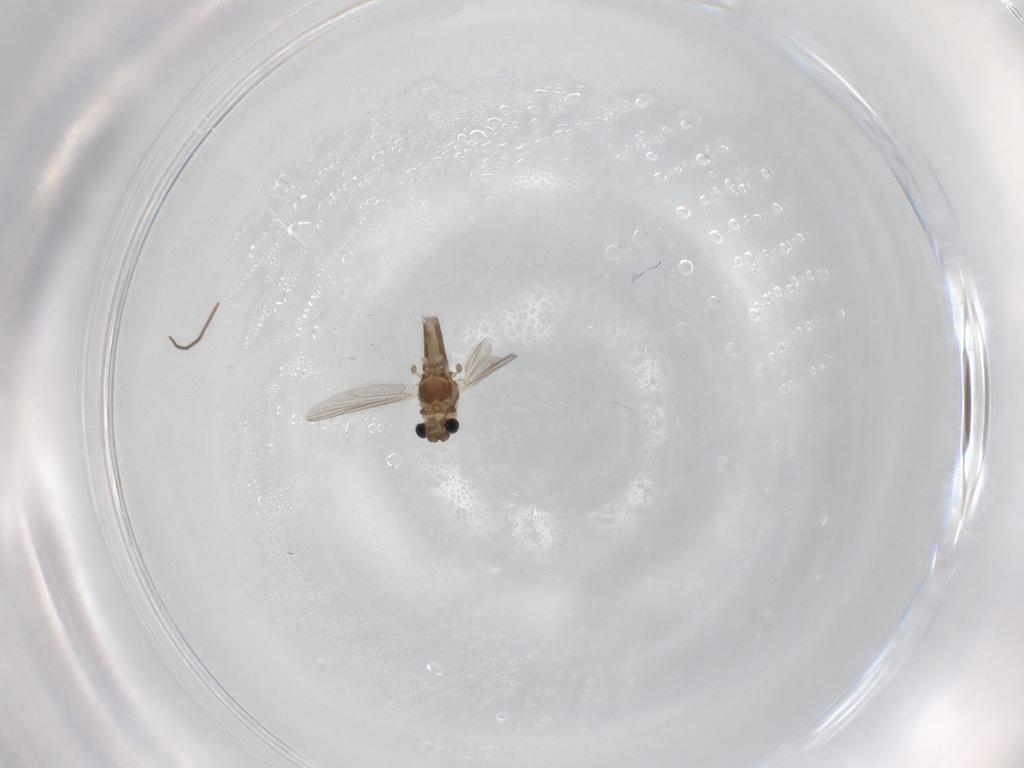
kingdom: Animalia
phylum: Arthropoda
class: Insecta
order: Diptera
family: Chironomidae
